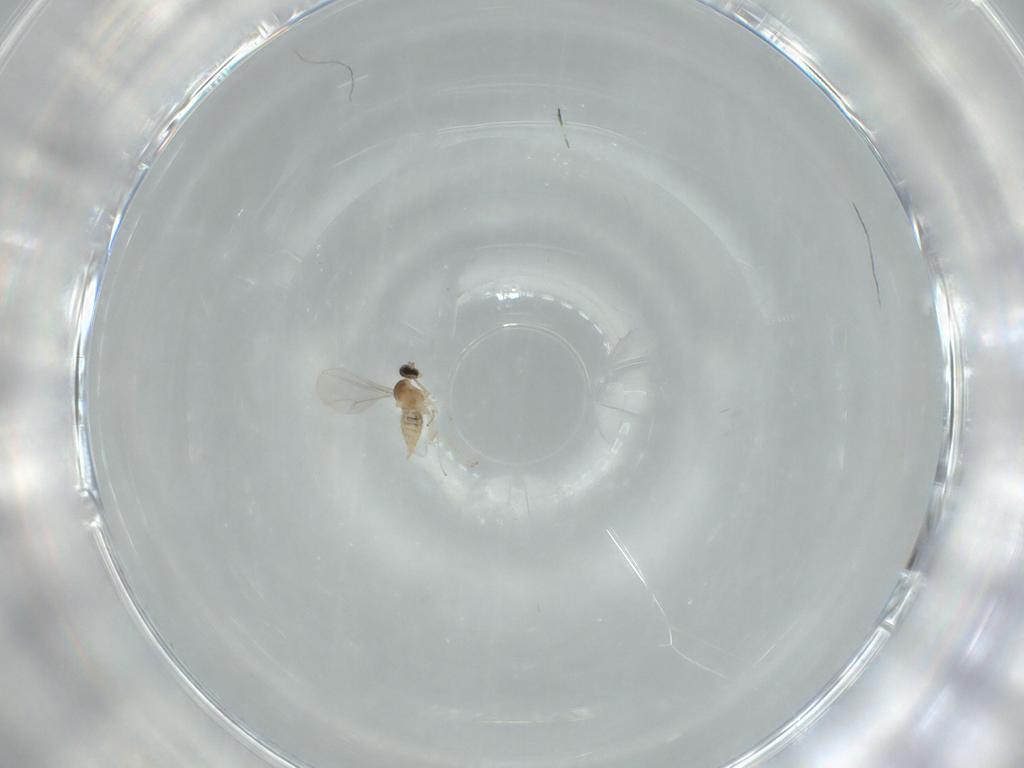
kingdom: Animalia
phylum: Arthropoda
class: Insecta
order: Diptera
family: Cecidomyiidae
